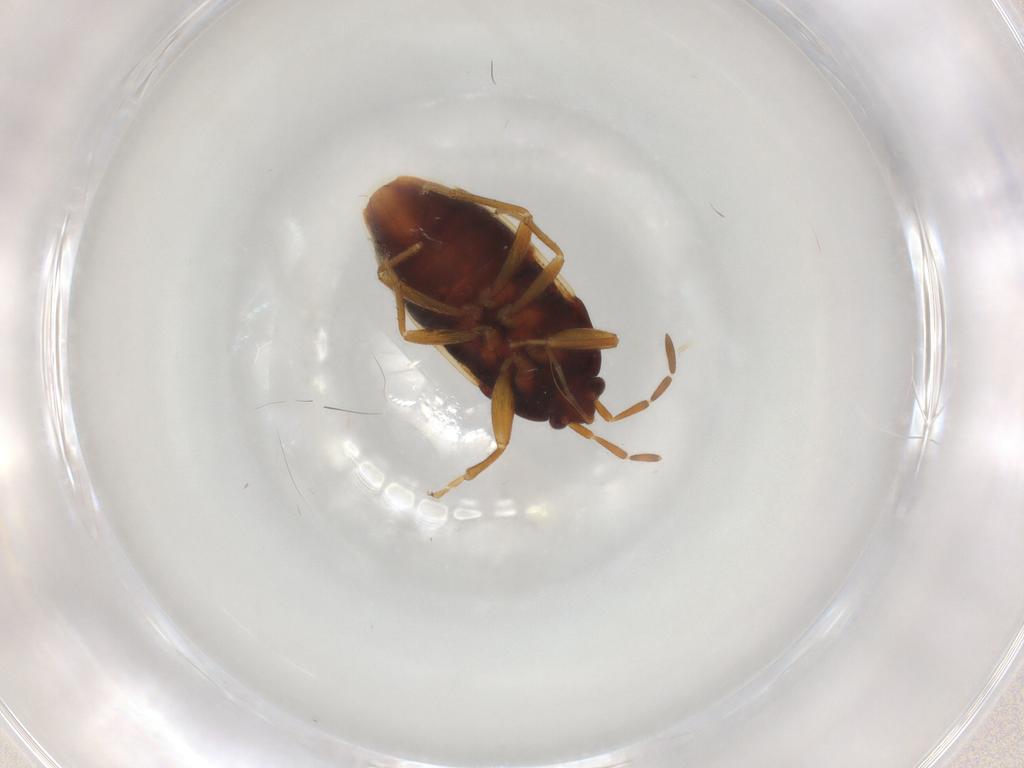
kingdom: Animalia
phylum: Arthropoda
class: Insecta
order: Hemiptera
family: Rhyparochromidae
